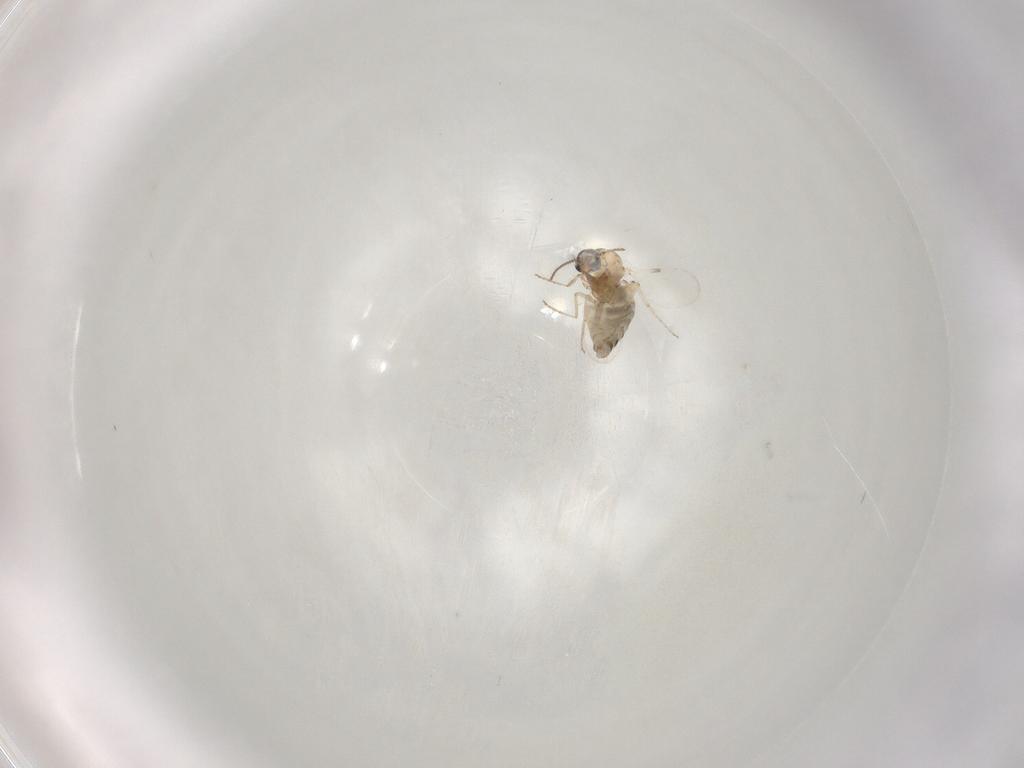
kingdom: Animalia
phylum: Arthropoda
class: Insecta
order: Diptera
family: Ceratopogonidae
